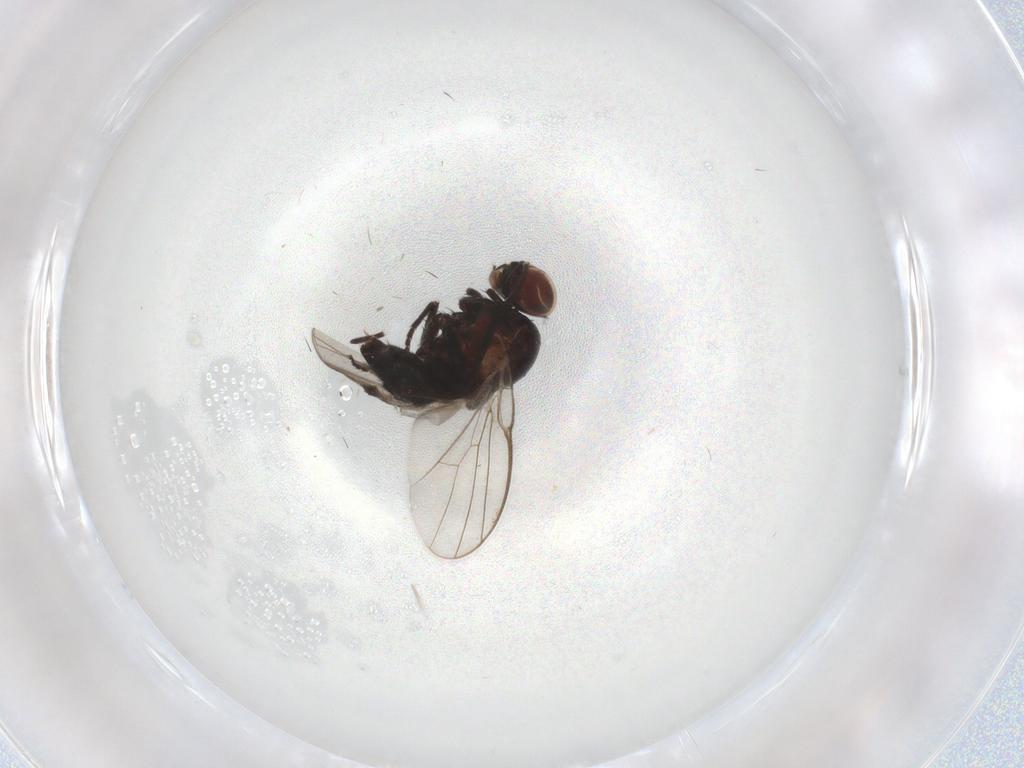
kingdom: Animalia
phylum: Arthropoda
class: Insecta
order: Diptera
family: Chironomidae
